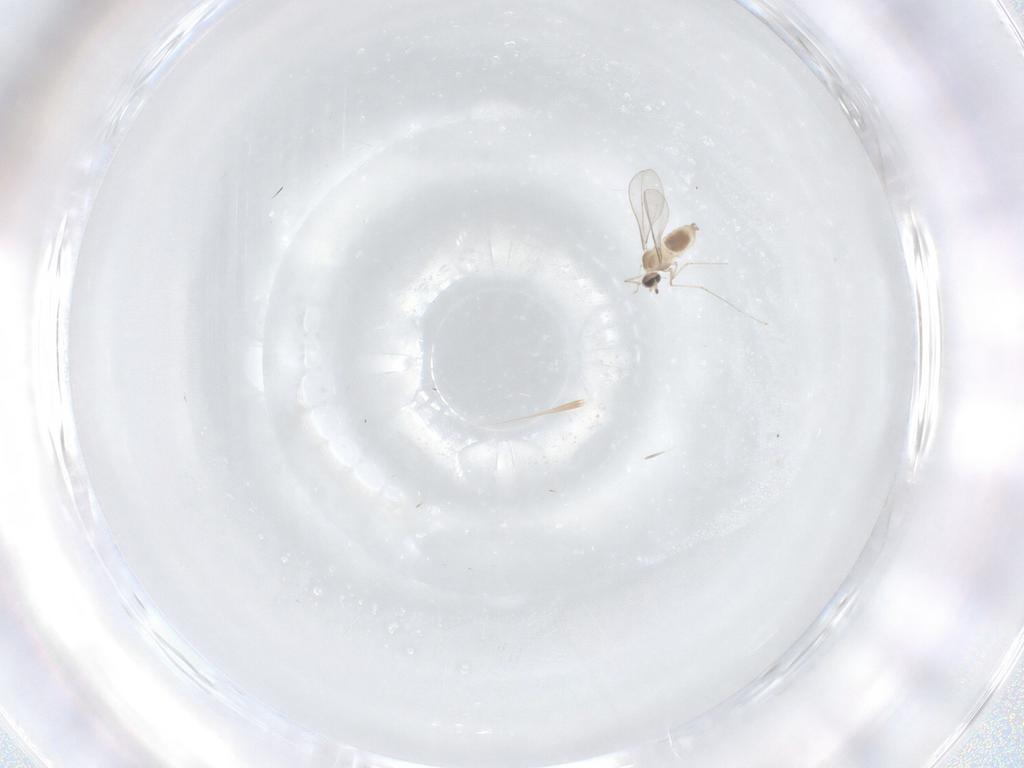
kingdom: Animalia
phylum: Arthropoda
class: Insecta
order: Diptera
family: Cecidomyiidae
